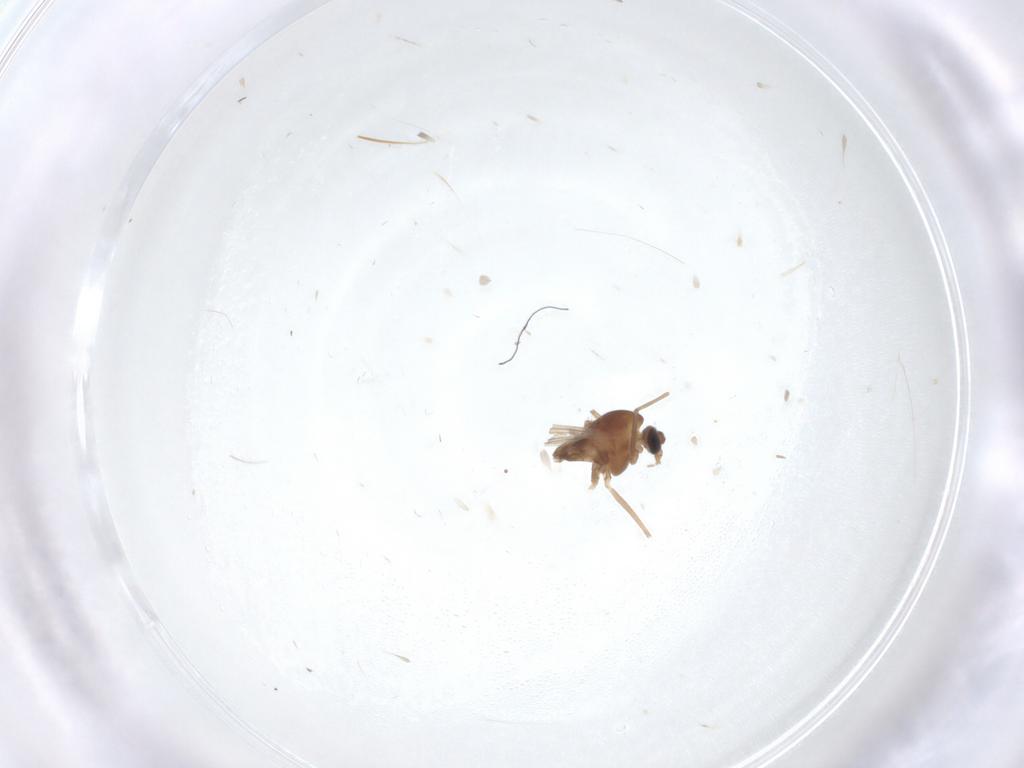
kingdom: Animalia
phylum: Arthropoda
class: Insecta
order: Diptera
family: Chironomidae
